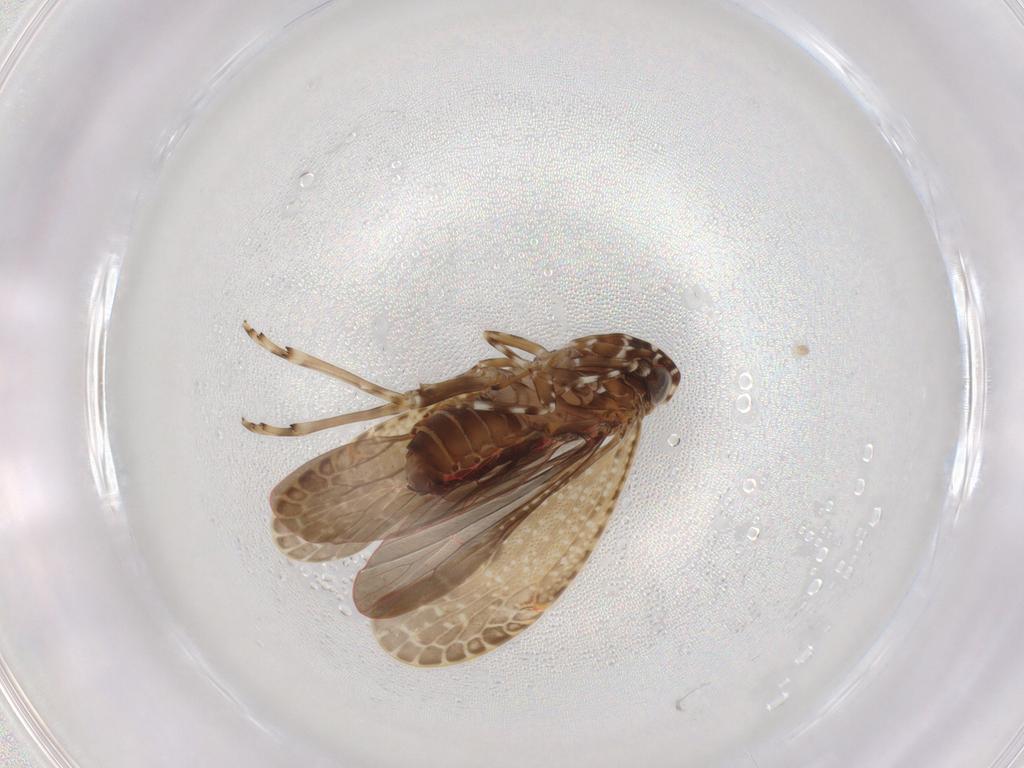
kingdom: Animalia
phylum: Arthropoda
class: Insecta
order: Hemiptera
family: Achilidae
